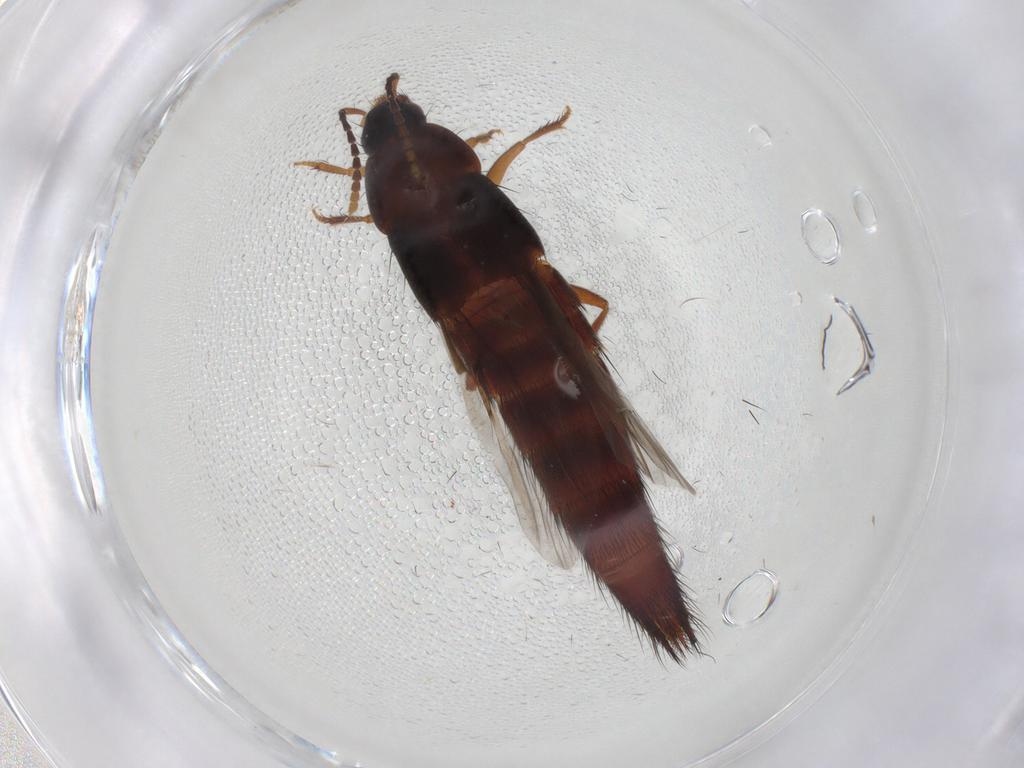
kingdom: Animalia
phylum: Arthropoda
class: Insecta
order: Coleoptera
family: Staphylinidae
